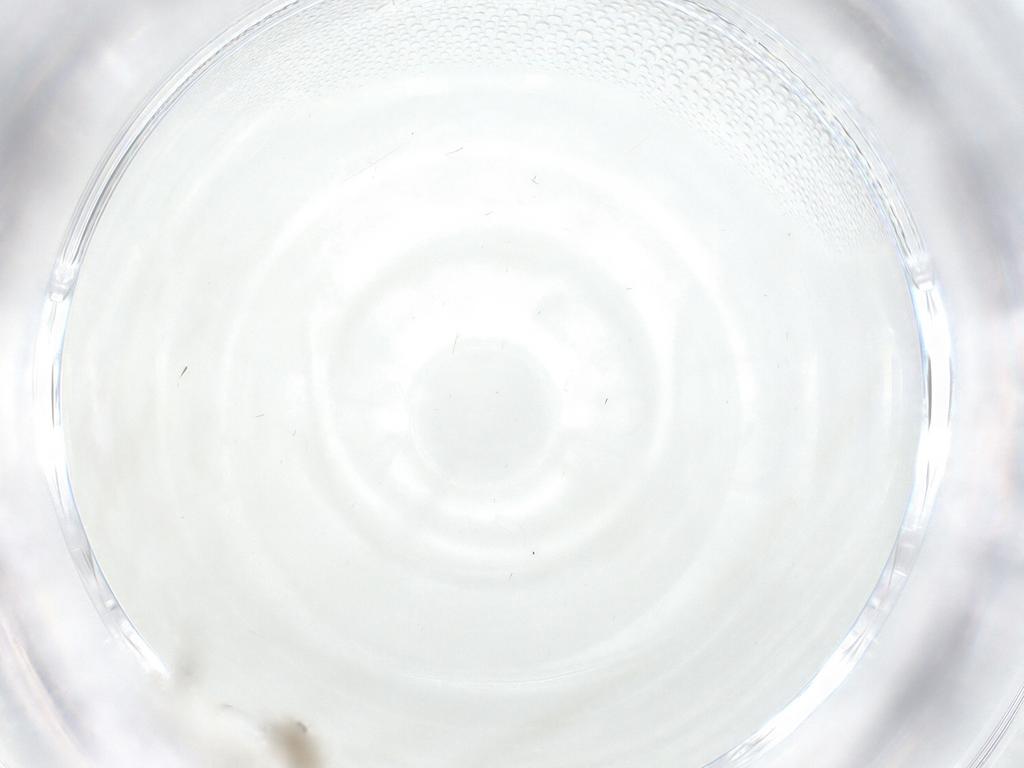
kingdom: Animalia
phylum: Arthropoda
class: Insecta
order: Diptera
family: Cecidomyiidae
